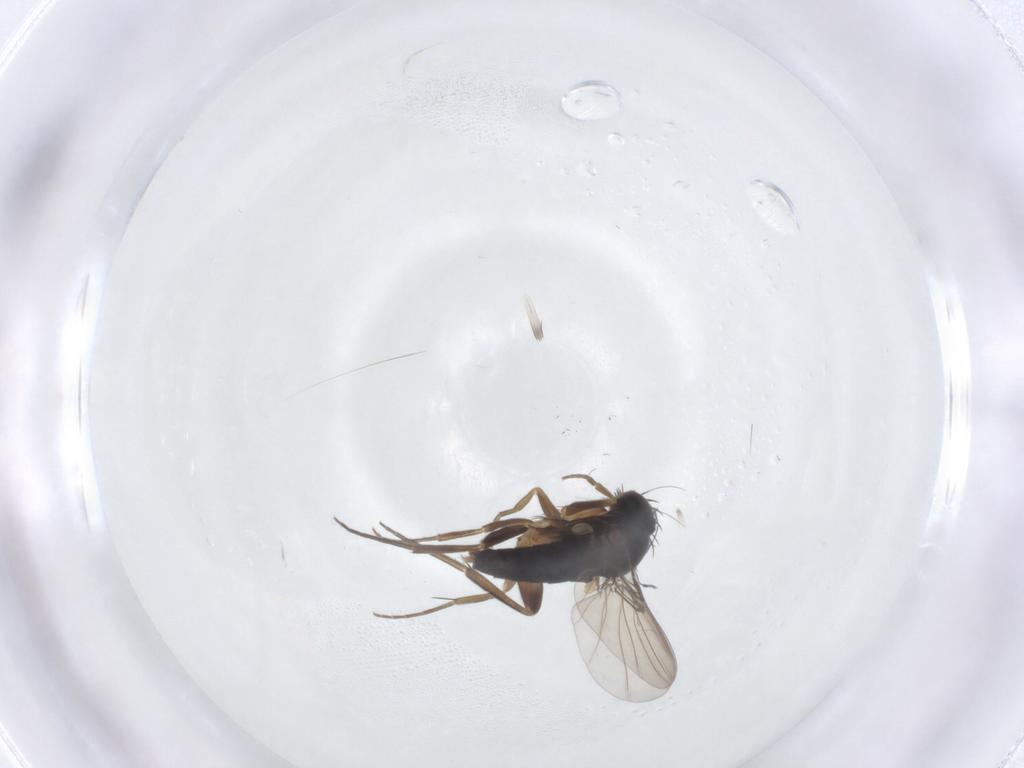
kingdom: Animalia
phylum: Arthropoda
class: Insecta
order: Diptera
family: Phoridae
